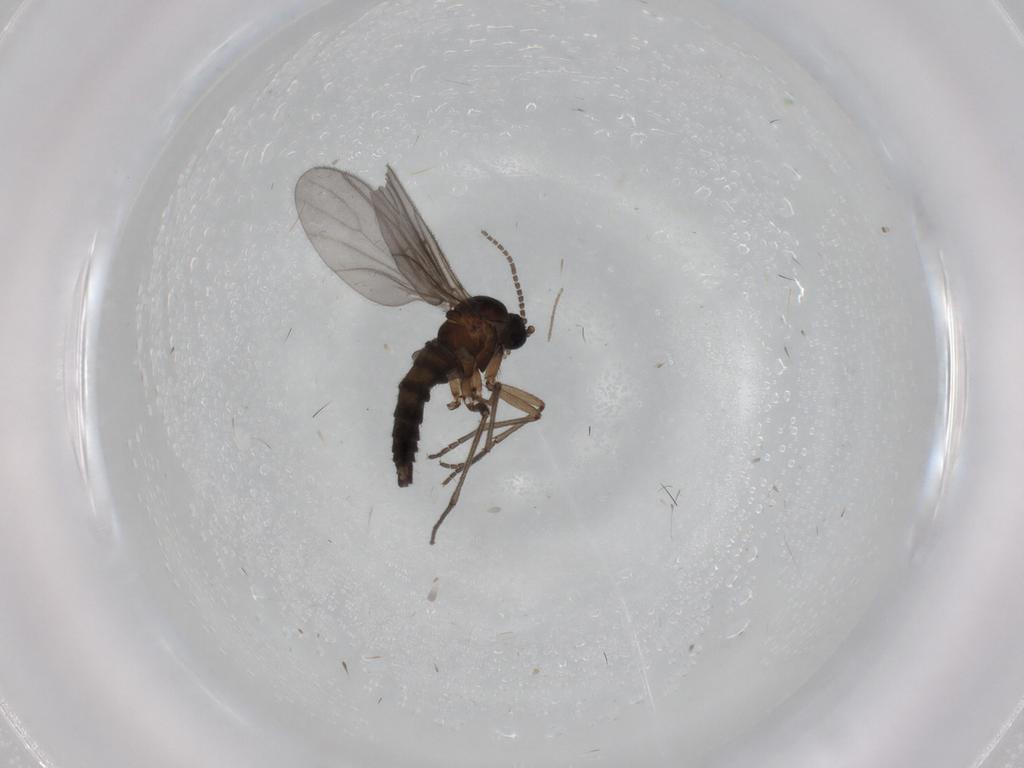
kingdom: Animalia
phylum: Arthropoda
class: Insecta
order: Diptera
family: Sciaridae
